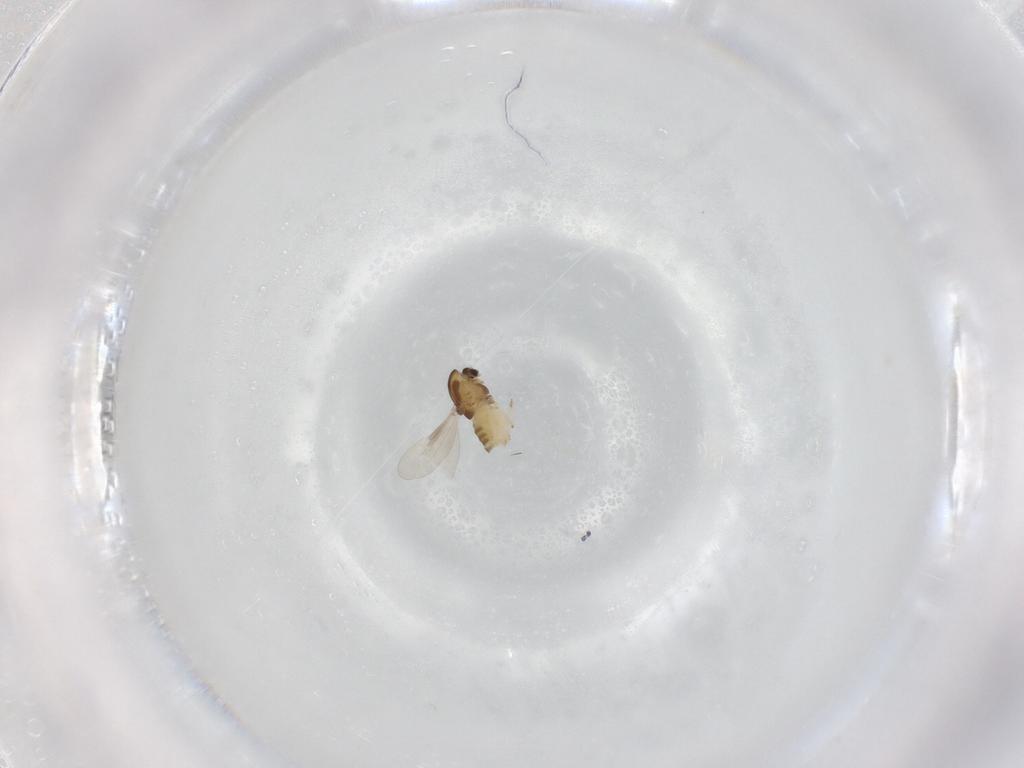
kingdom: Animalia
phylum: Arthropoda
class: Insecta
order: Diptera
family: Chironomidae
